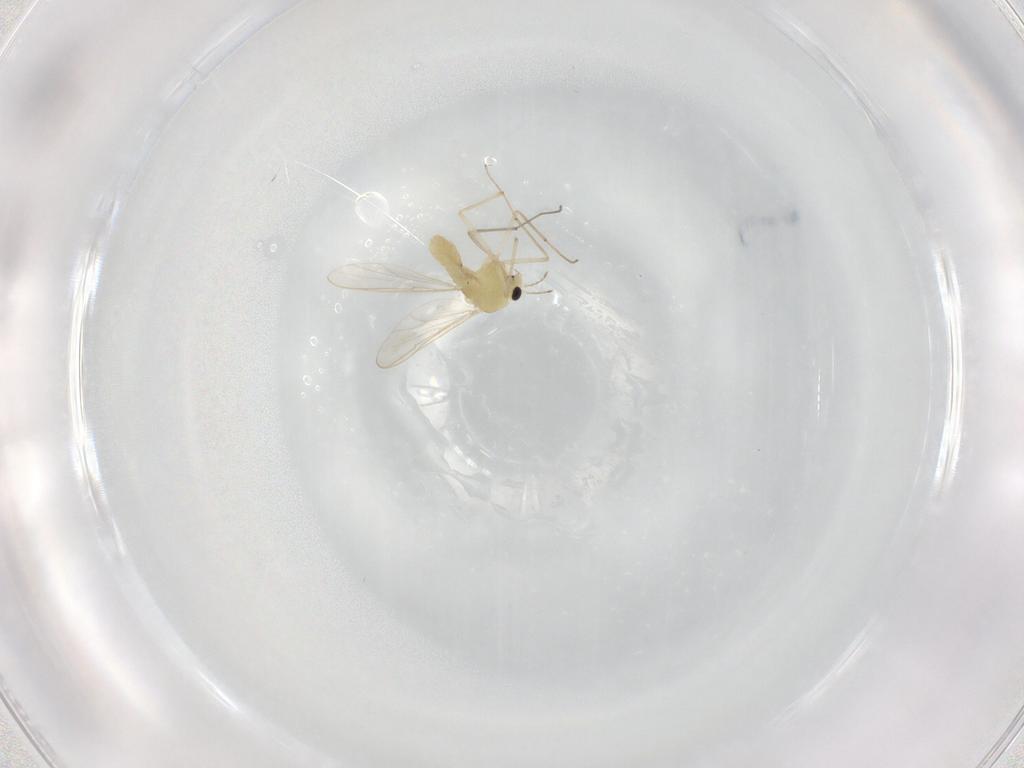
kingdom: Animalia
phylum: Arthropoda
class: Insecta
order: Diptera
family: Chironomidae
